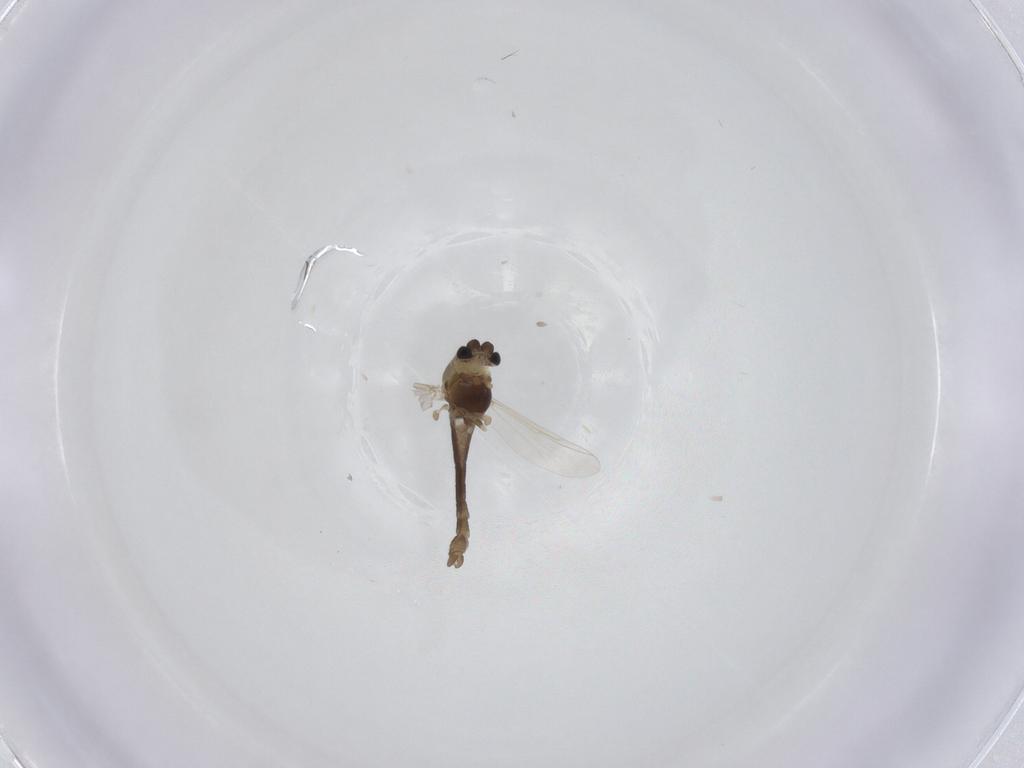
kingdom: Animalia
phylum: Arthropoda
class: Insecta
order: Diptera
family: Chironomidae
